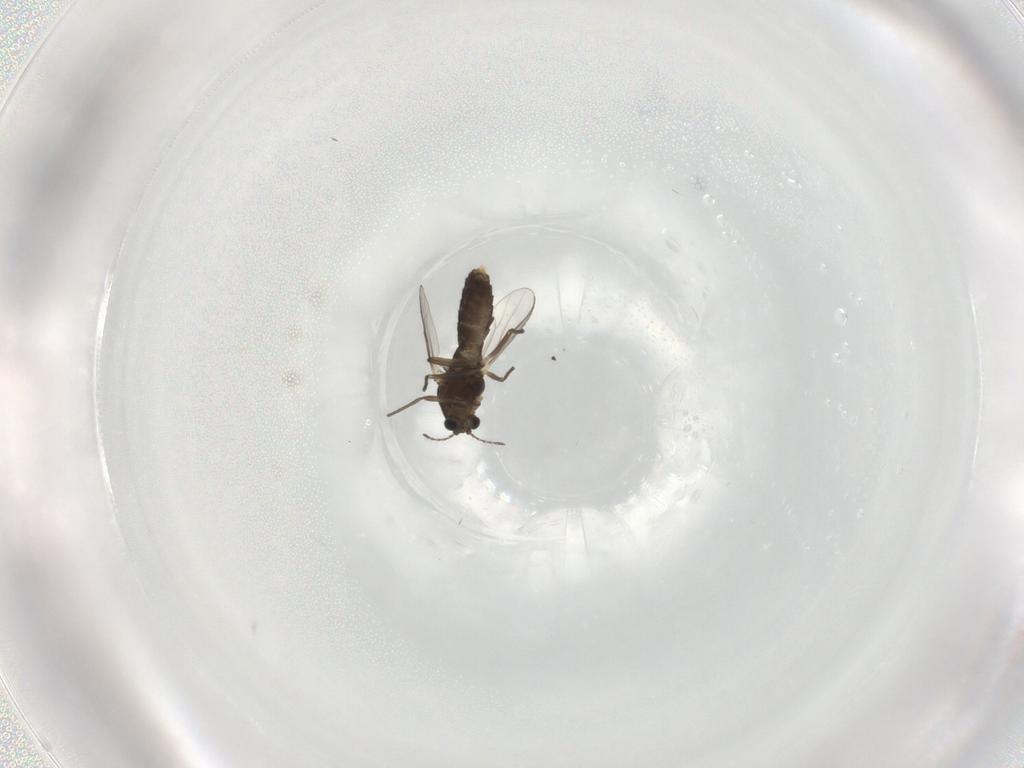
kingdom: Animalia
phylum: Arthropoda
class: Insecta
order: Diptera
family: Chironomidae
